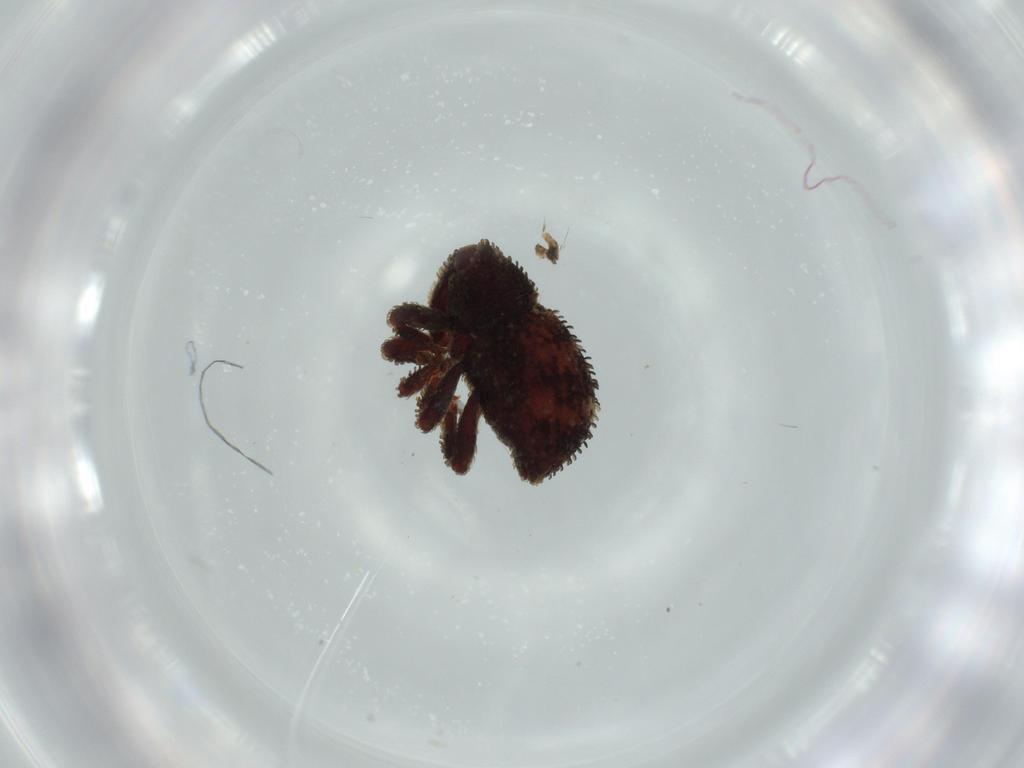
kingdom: Animalia
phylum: Arthropoda
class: Insecta
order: Coleoptera
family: Curculionidae
